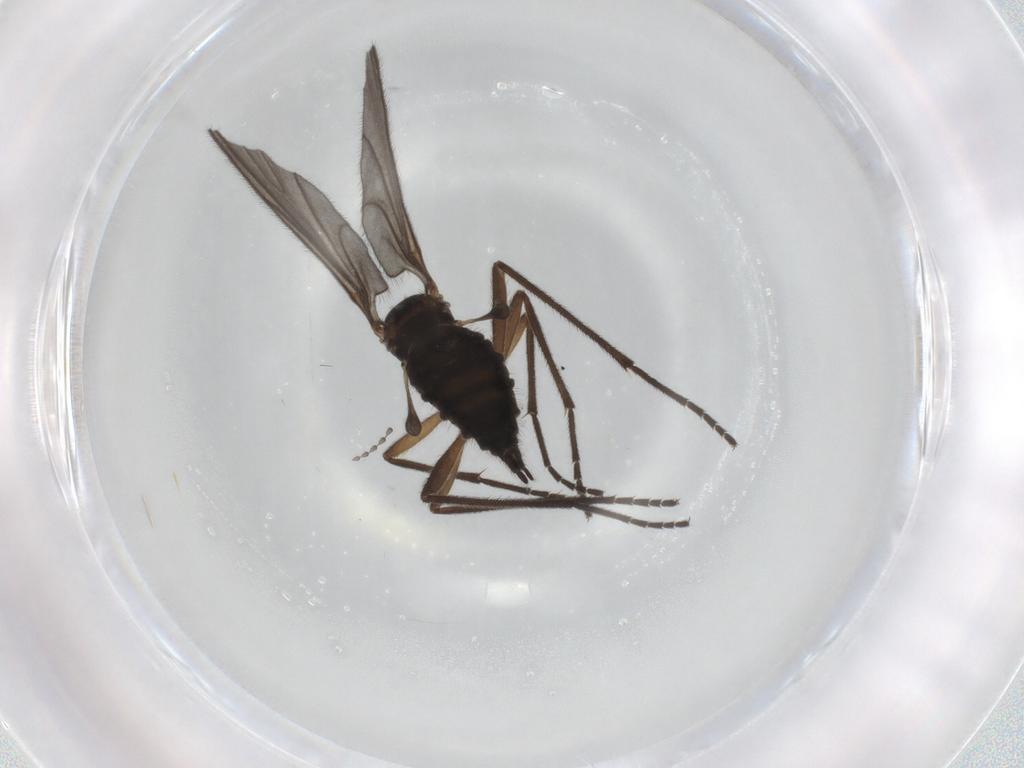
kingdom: Animalia
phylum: Arthropoda
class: Insecta
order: Diptera
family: Sciaridae
